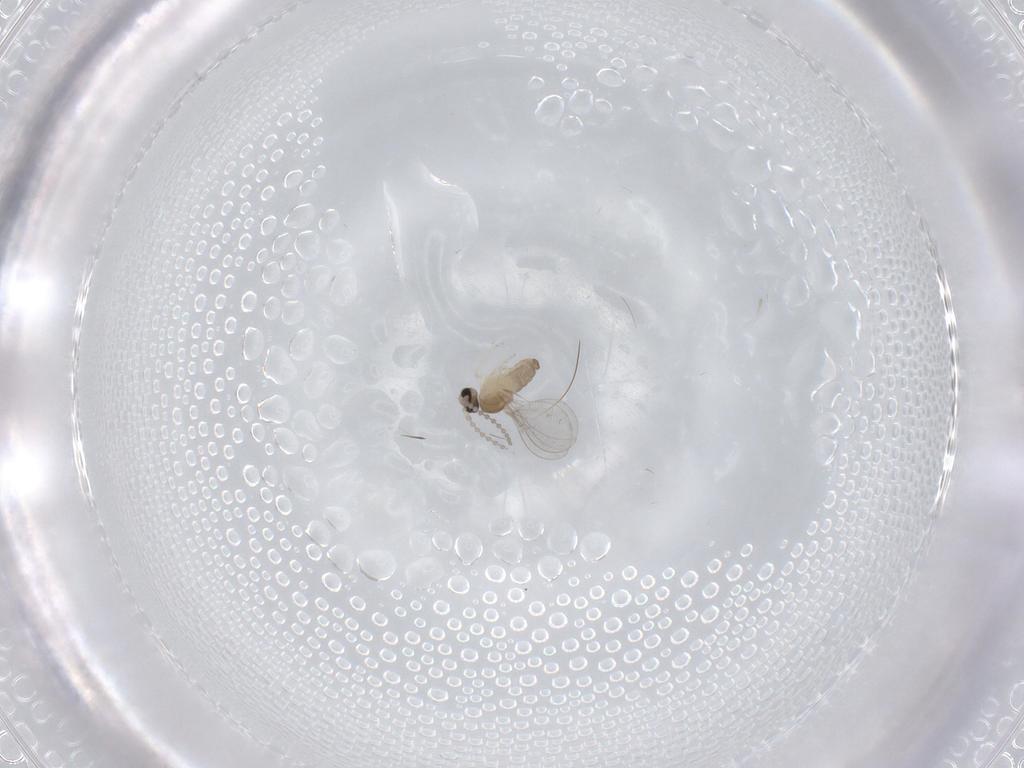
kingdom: Animalia
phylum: Arthropoda
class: Insecta
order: Diptera
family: Cecidomyiidae
